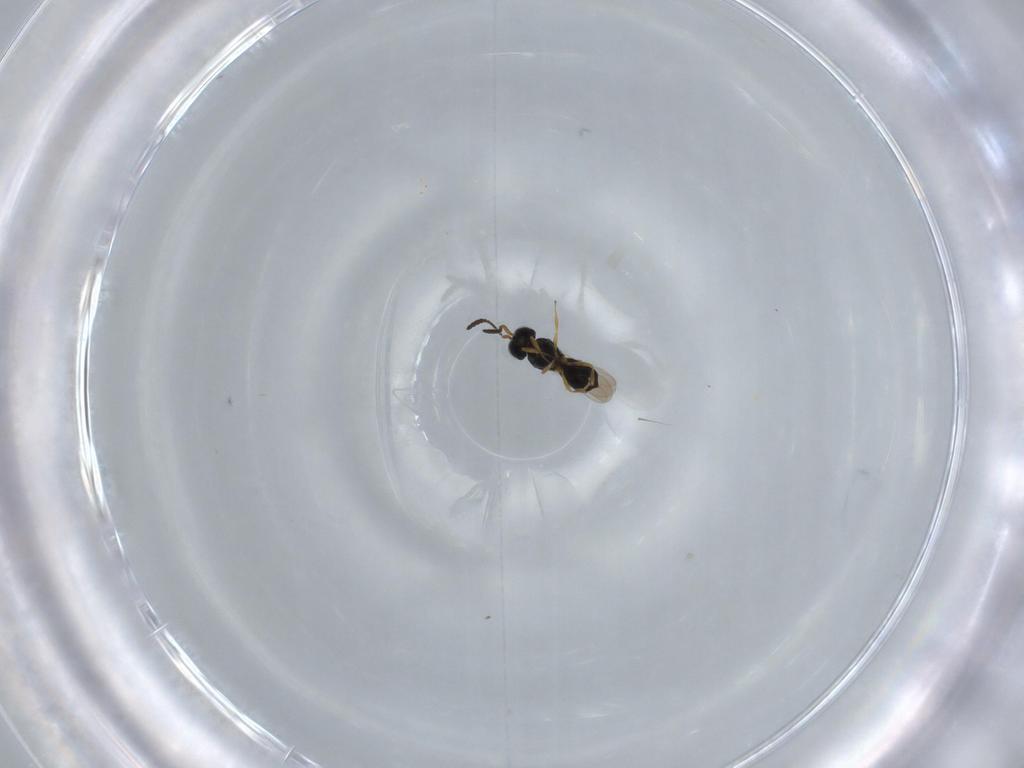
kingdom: Animalia
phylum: Arthropoda
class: Insecta
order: Hymenoptera
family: Scelionidae
